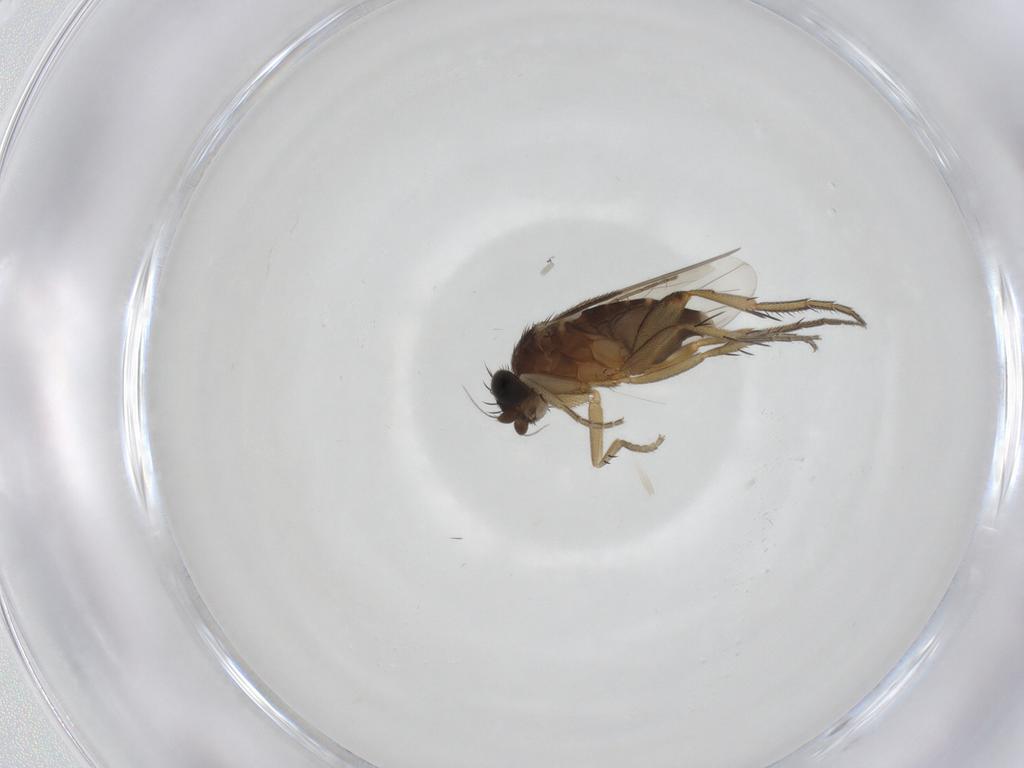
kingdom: Animalia
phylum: Arthropoda
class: Insecta
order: Diptera
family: Phoridae
